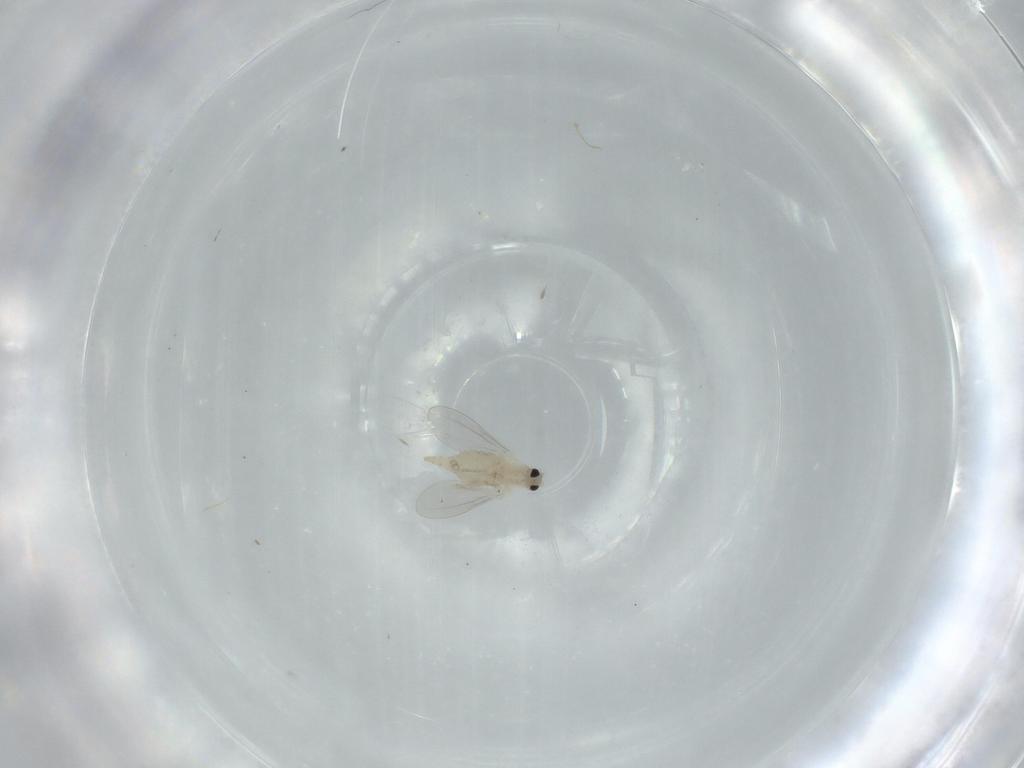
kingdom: Animalia
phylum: Arthropoda
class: Insecta
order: Diptera
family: Cecidomyiidae
